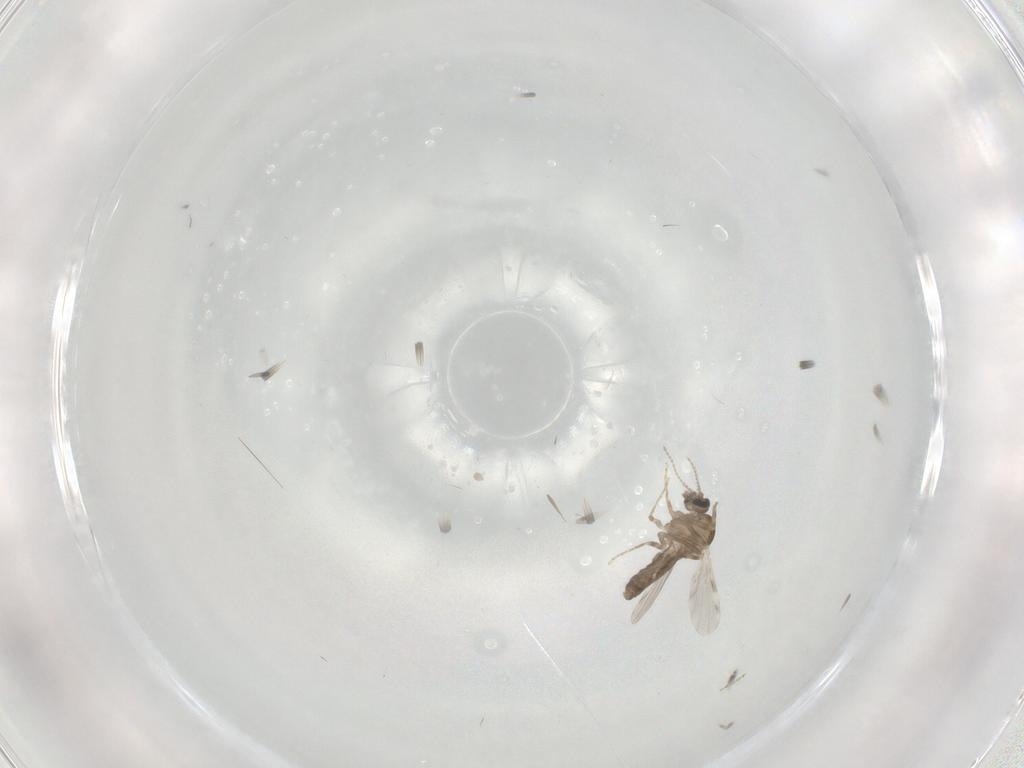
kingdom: Animalia
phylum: Arthropoda
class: Insecta
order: Diptera
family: Ceratopogonidae
